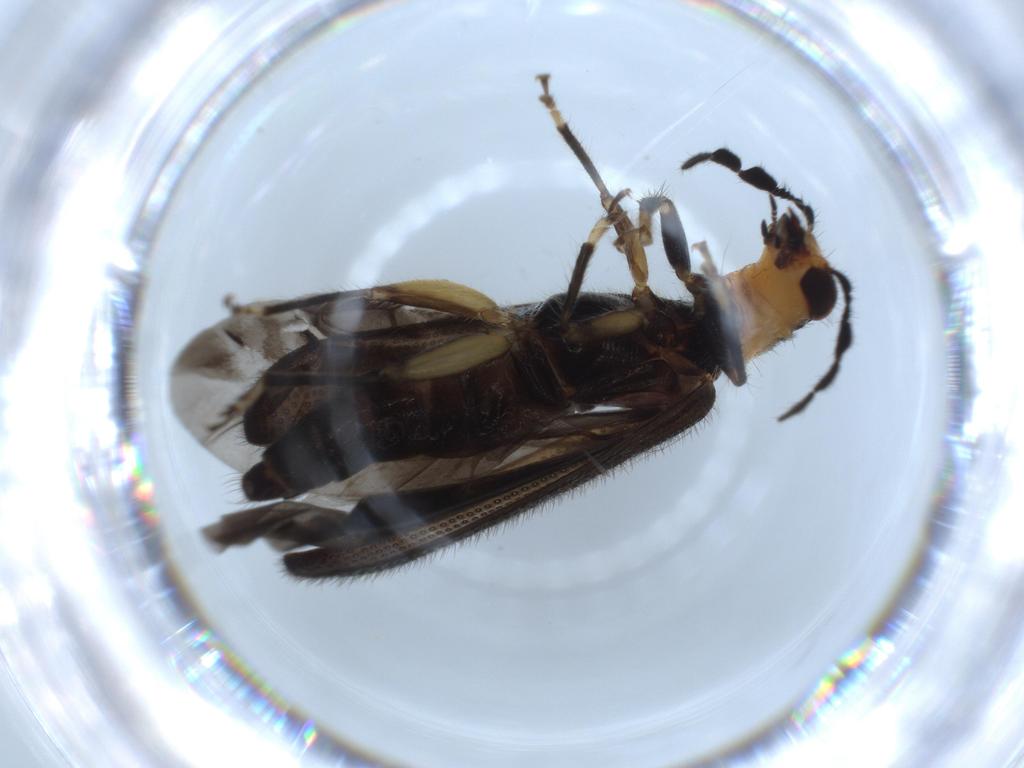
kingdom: Animalia
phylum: Arthropoda
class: Insecta
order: Coleoptera
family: Cleridae
